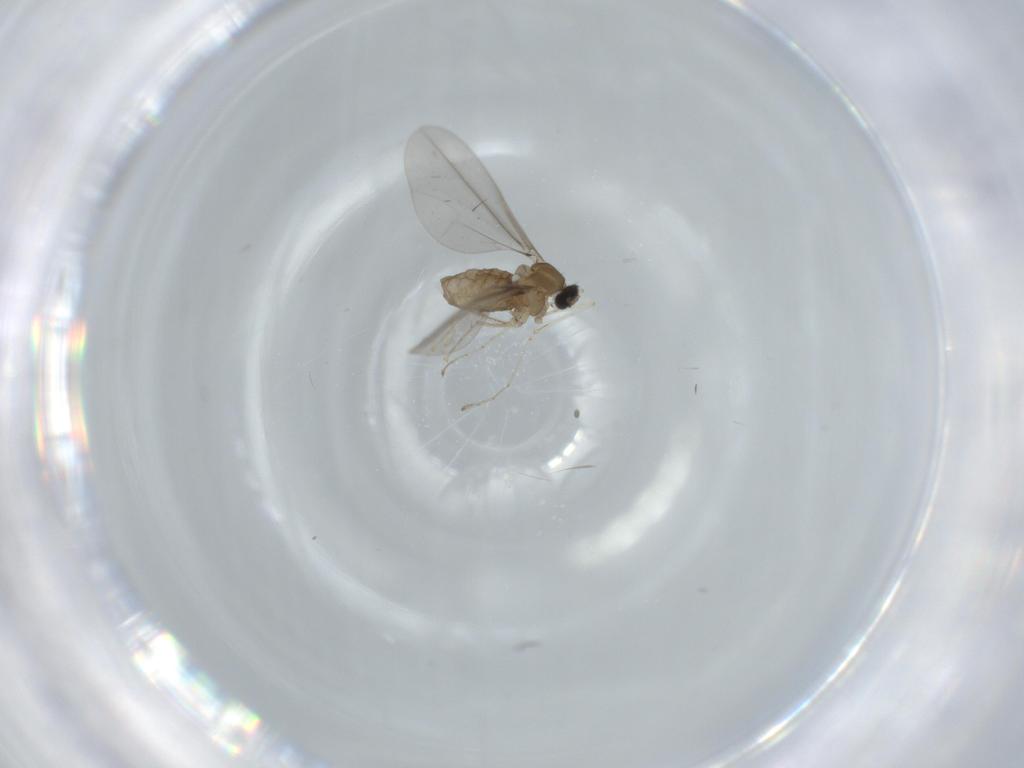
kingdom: Animalia
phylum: Arthropoda
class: Insecta
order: Diptera
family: Cecidomyiidae
